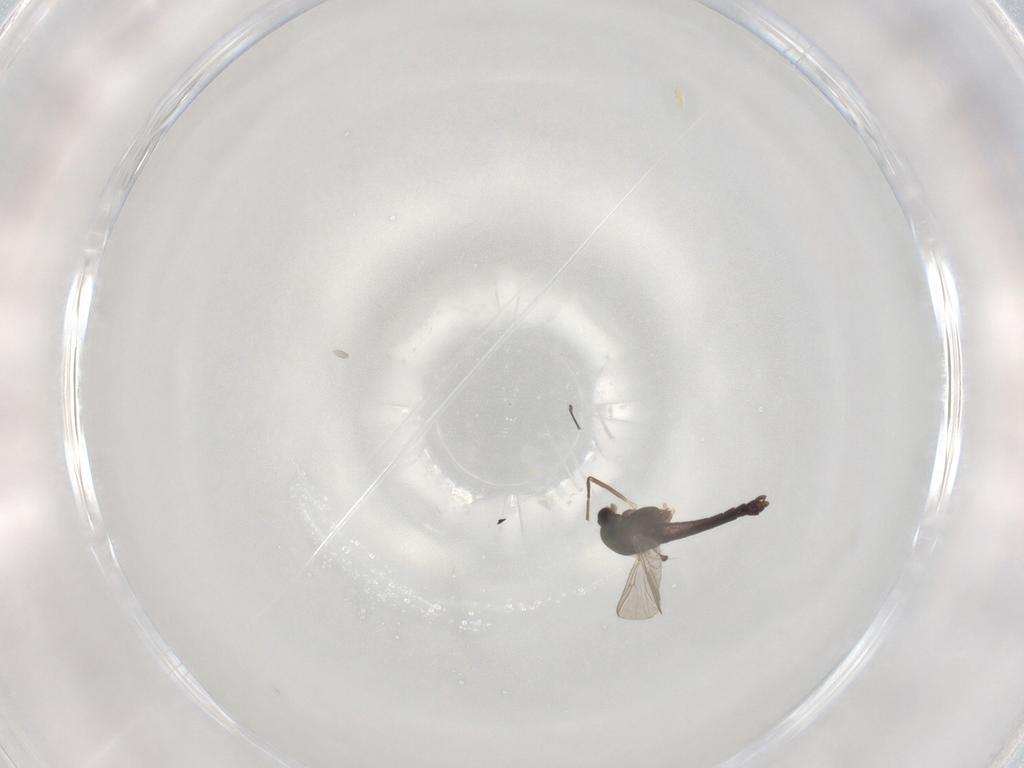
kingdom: Animalia
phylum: Arthropoda
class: Insecta
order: Diptera
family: Chironomidae
